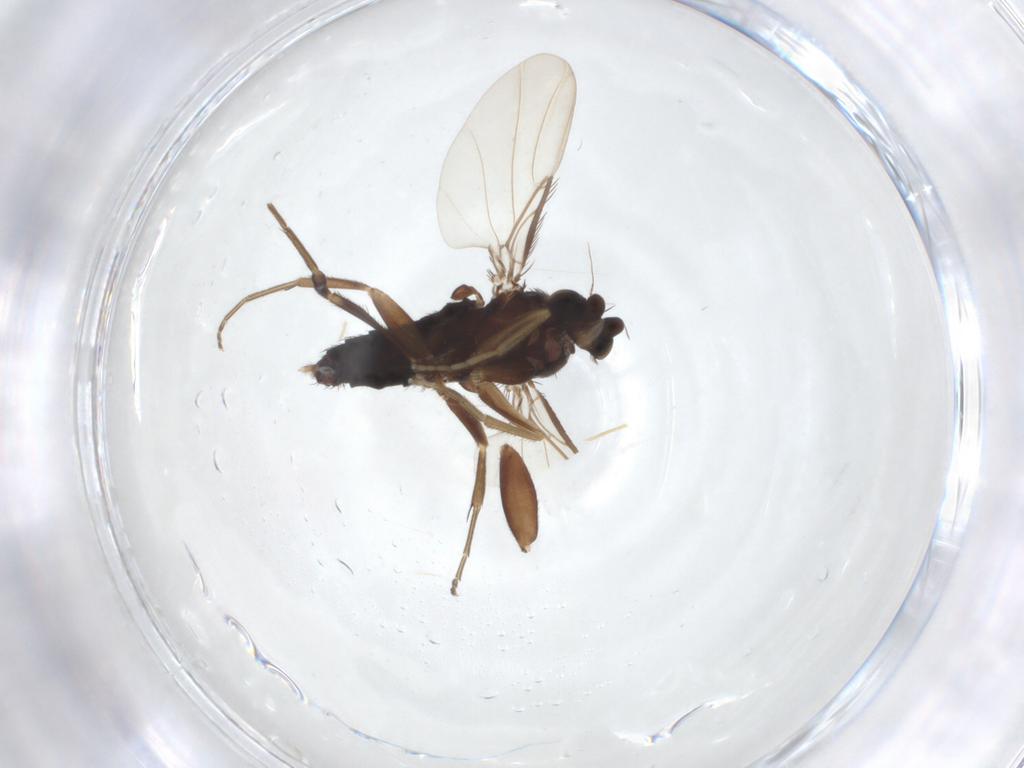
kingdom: Animalia
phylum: Arthropoda
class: Insecta
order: Diptera
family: Phoridae
